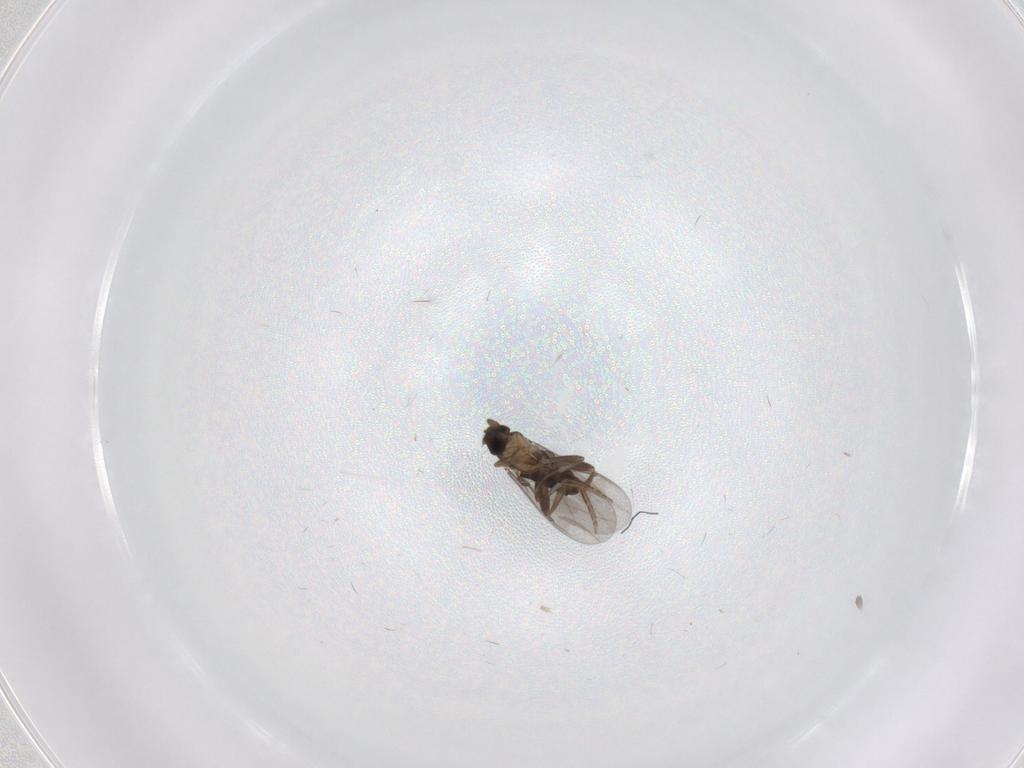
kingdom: Animalia
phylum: Arthropoda
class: Insecta
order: Diptera
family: Phoridae
